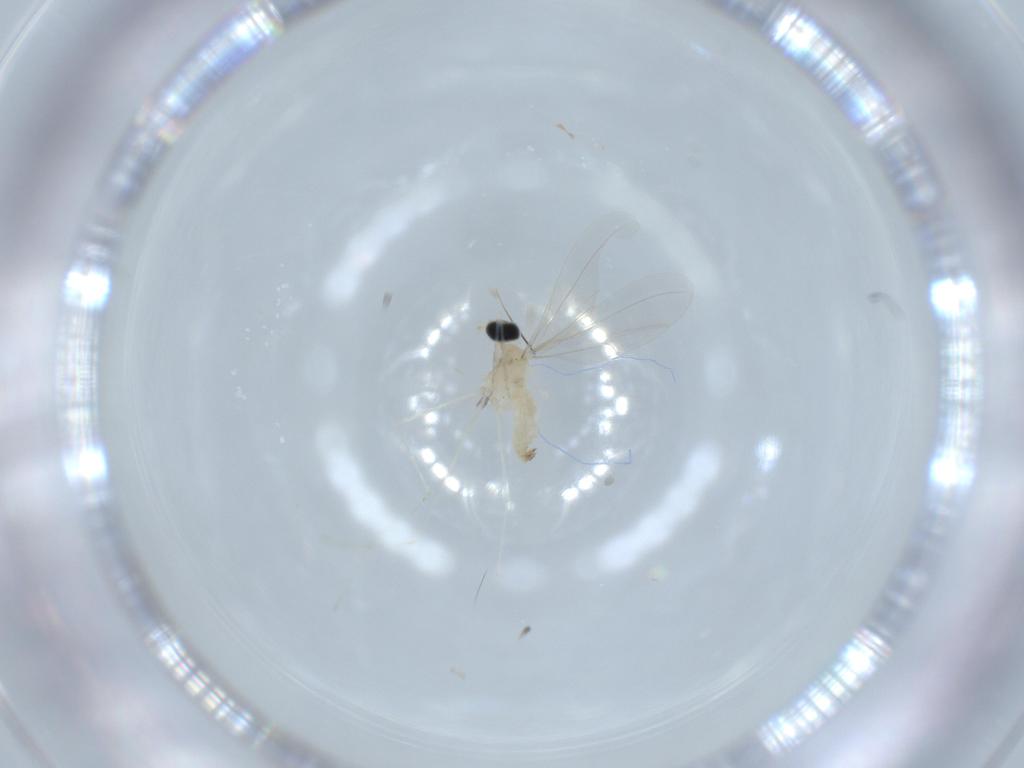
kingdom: Animalia
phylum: Arthropoda
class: Insecta
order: Diptera
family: Cecidomyiidae
